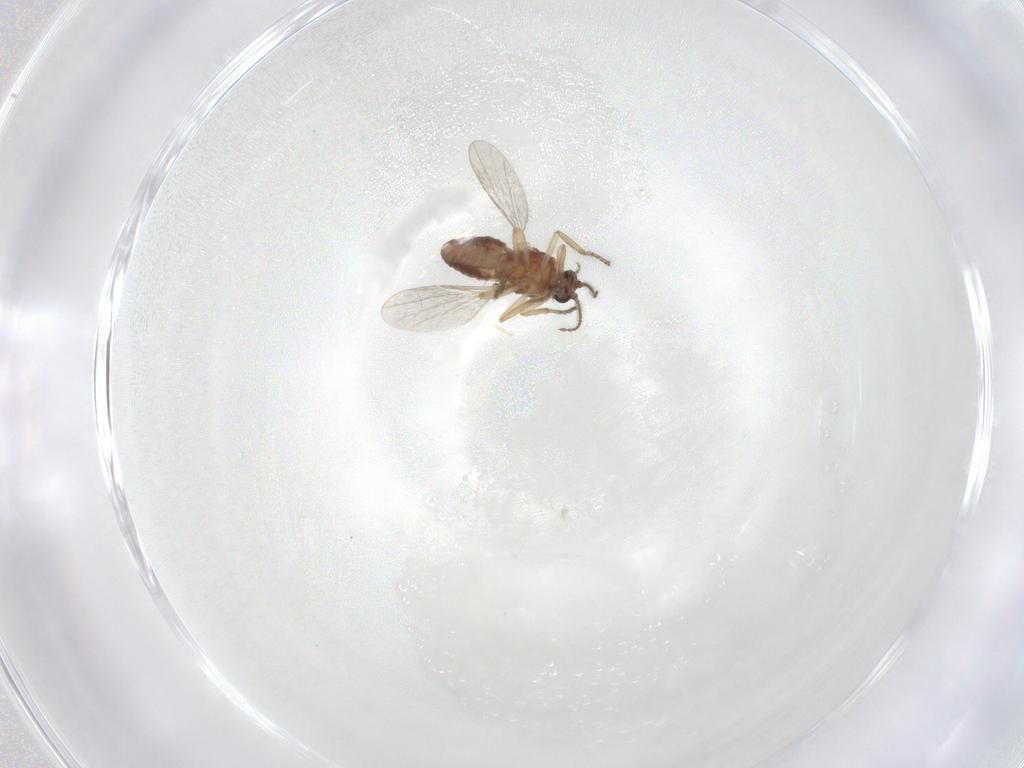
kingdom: Animalia
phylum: Arthropoda
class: Insecta
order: Diptera
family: Ceratopogonidae
